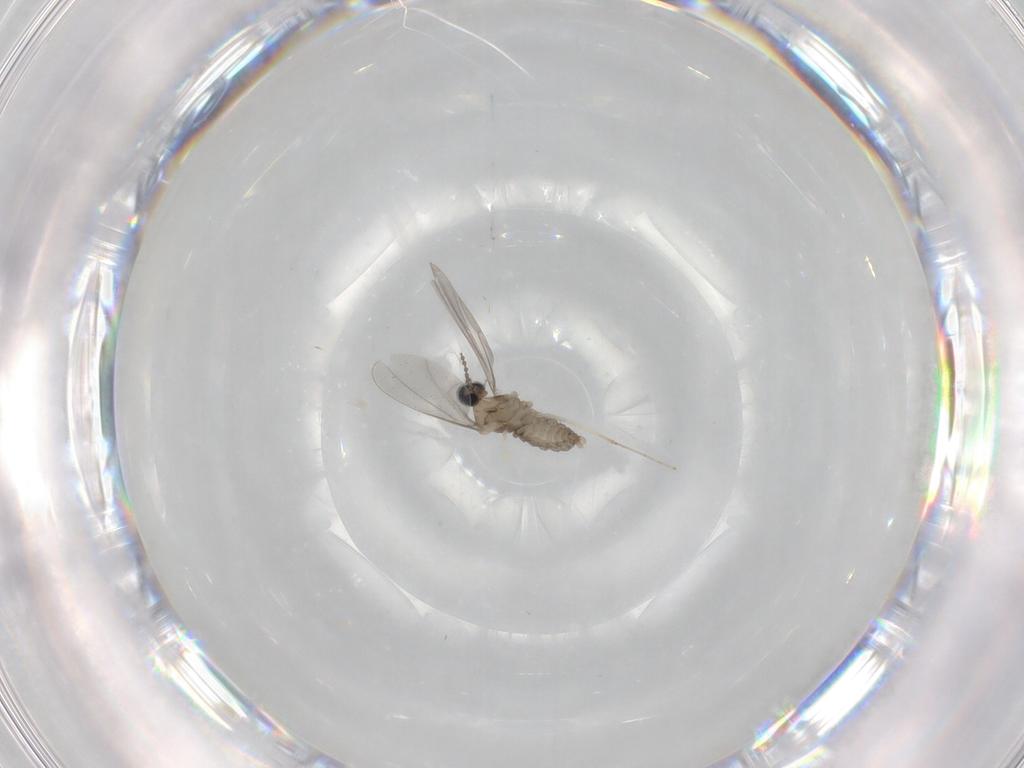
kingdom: Animalia
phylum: Arthropoda
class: Insecta
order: Diptera
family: Cecidomyiidae
